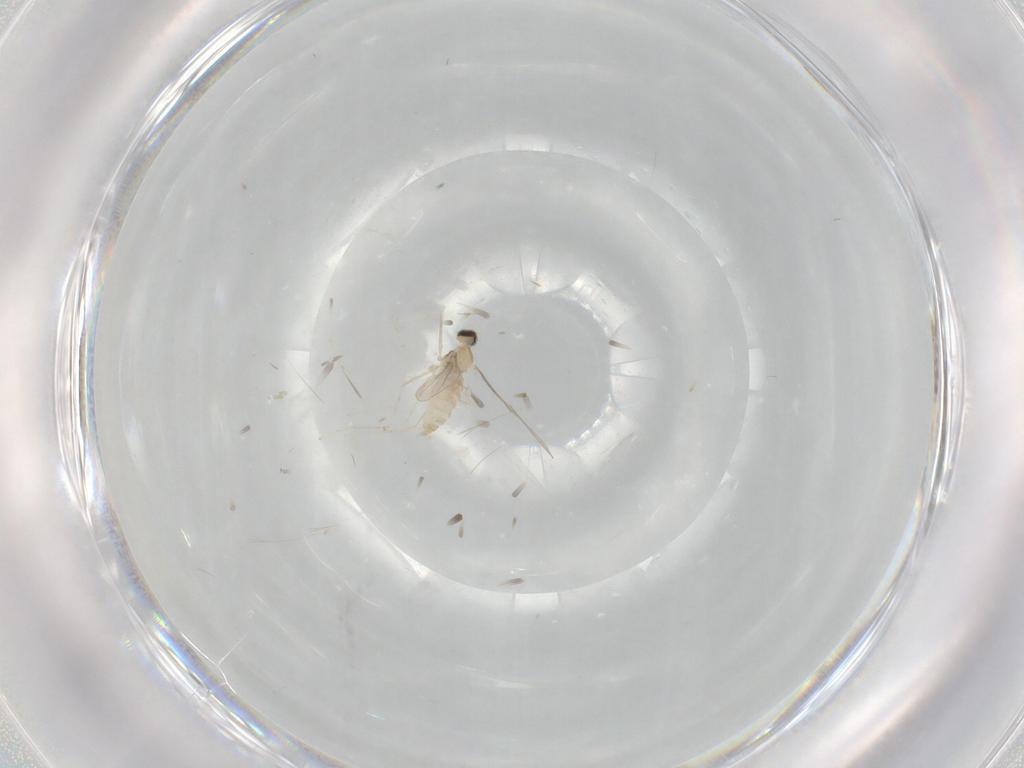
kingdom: Animalia
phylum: Arthropoda
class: Insecta
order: Diptera
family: Cecidomyiidae
